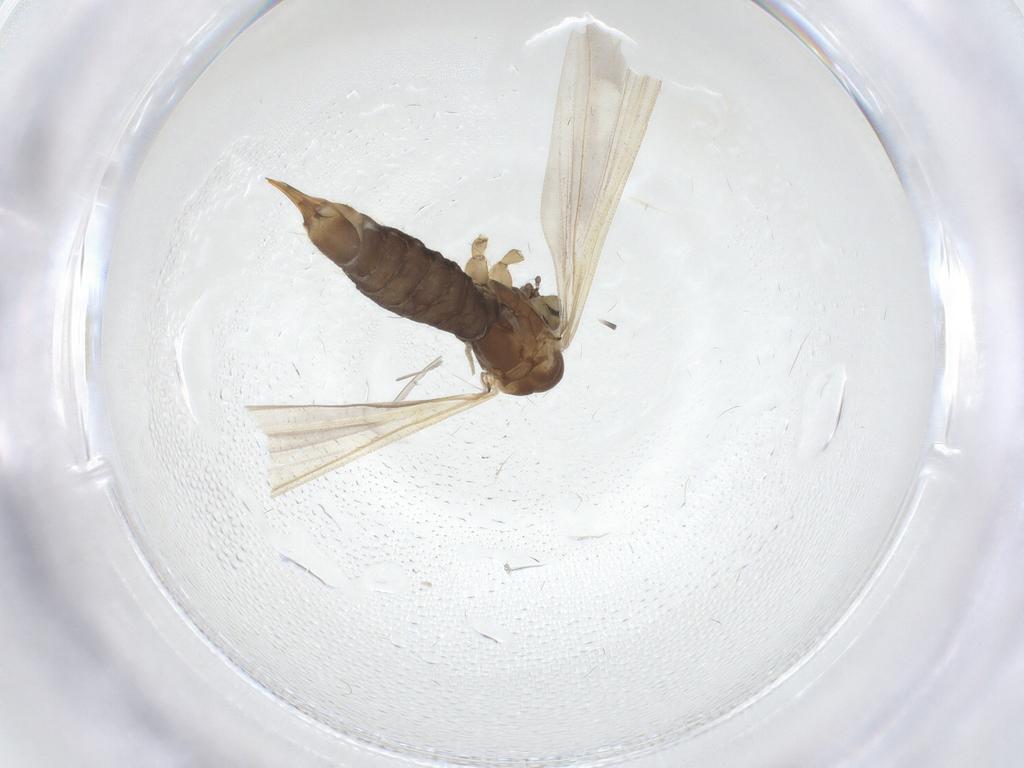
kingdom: Animalia
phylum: Arthropoda
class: Insecta
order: Diptera
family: Limoniidae
